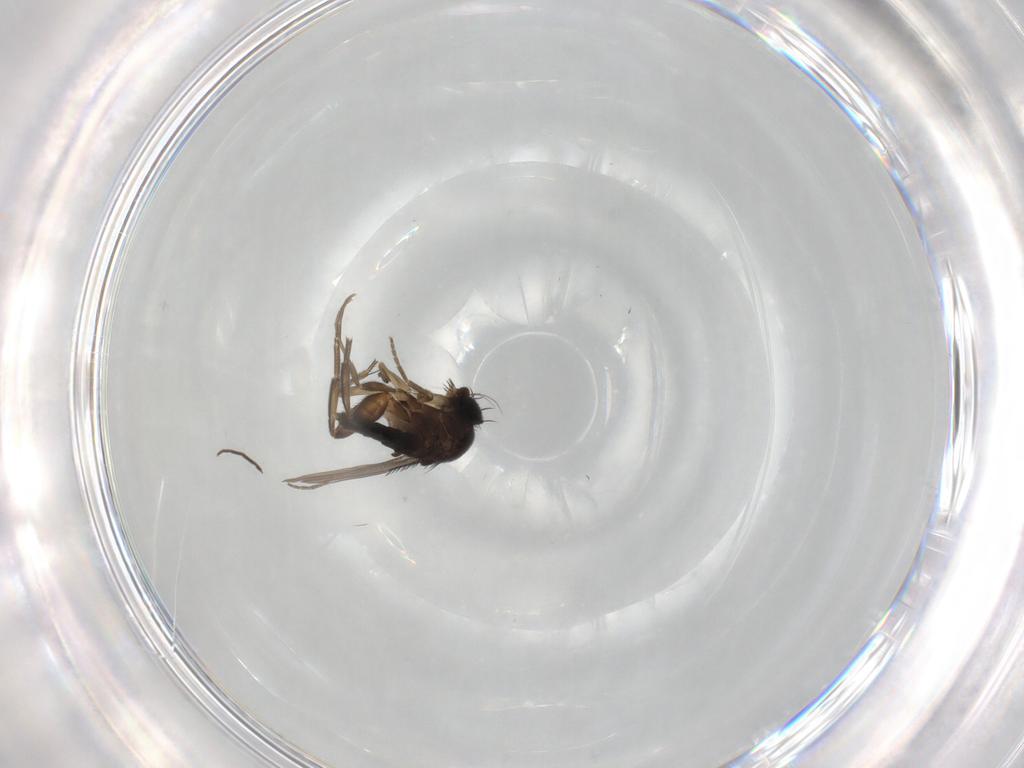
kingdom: Animalia
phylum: Arthropoda
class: Insecta
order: Diptera
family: Phoridae
